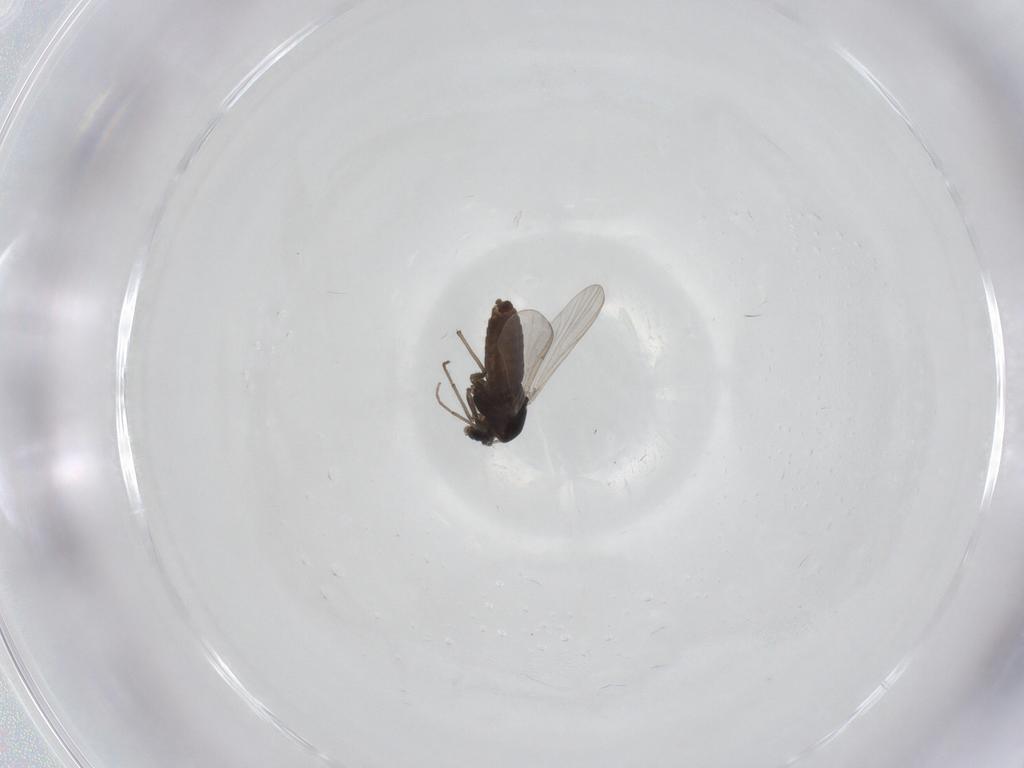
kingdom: Animalia
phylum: Arthropoda
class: Insecta
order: Diptera
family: Chironomidae
